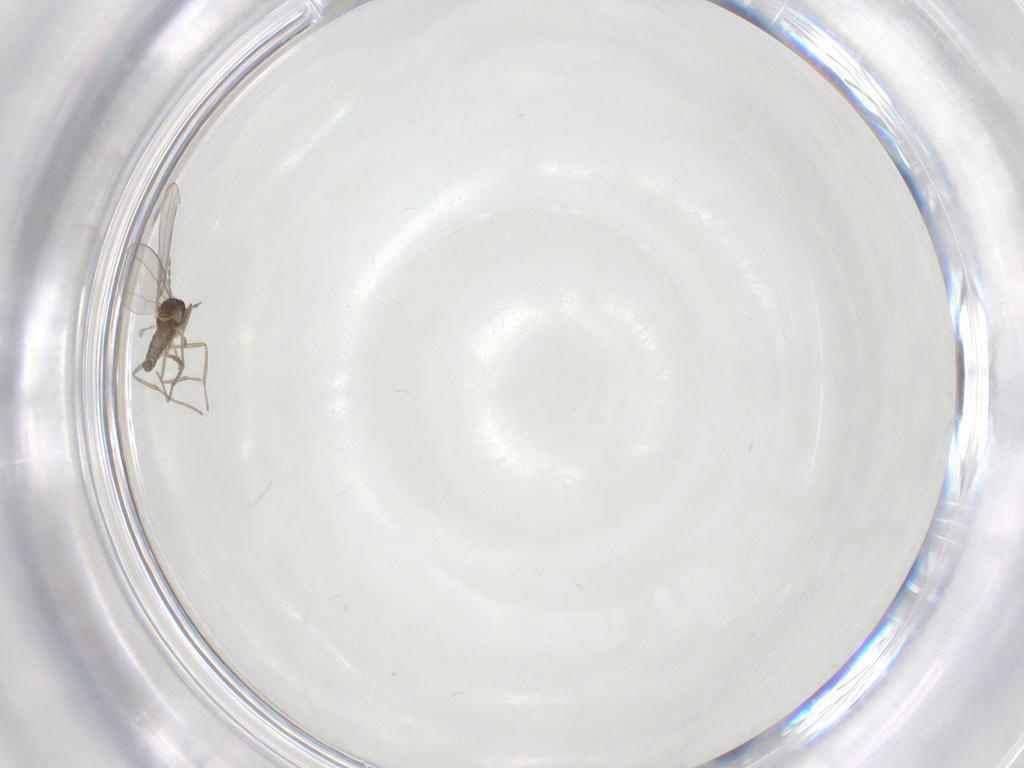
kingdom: Animalia
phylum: Arthropoda
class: Insecta
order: Diptera
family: Cecidomyiidae
